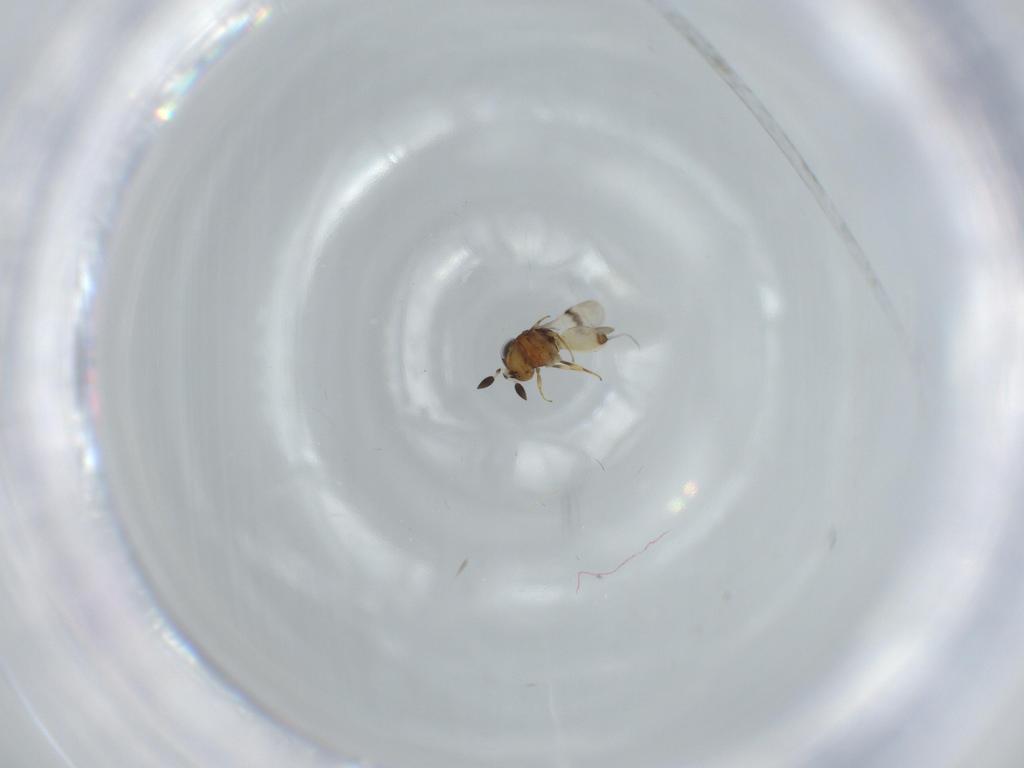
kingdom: Animalia
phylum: Arthropoda
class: Arachnida
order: Araneae
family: Pholcidae
